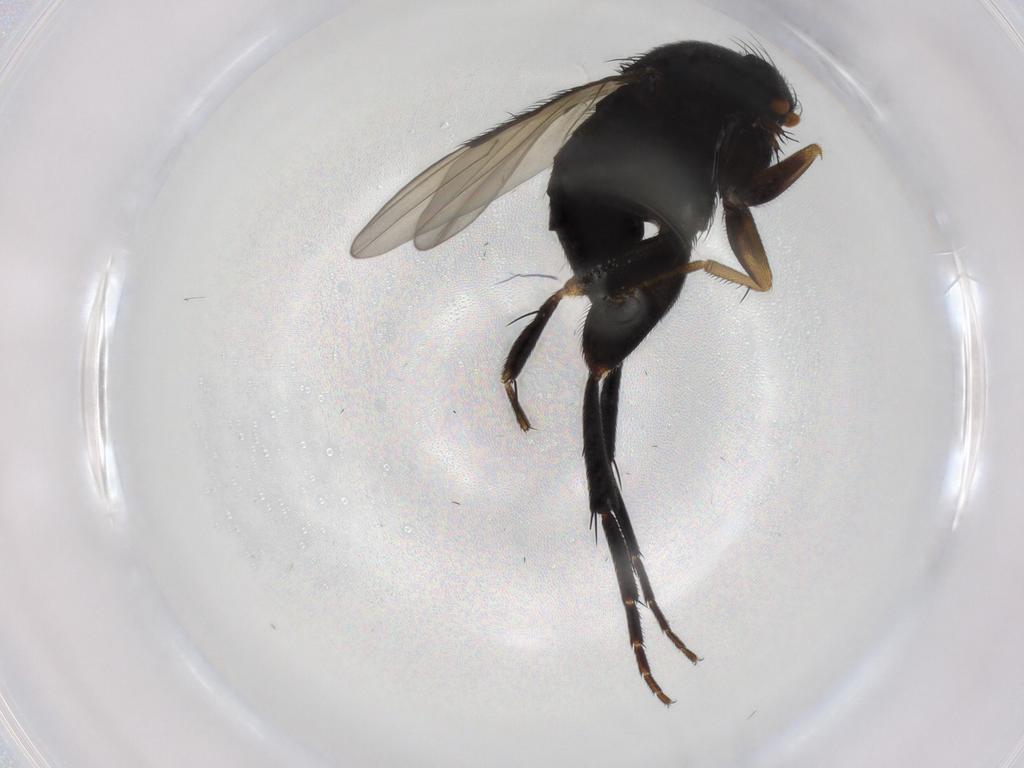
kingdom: Animalia
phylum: Arthropoda
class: Insecta
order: Diptera
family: Phoridae
